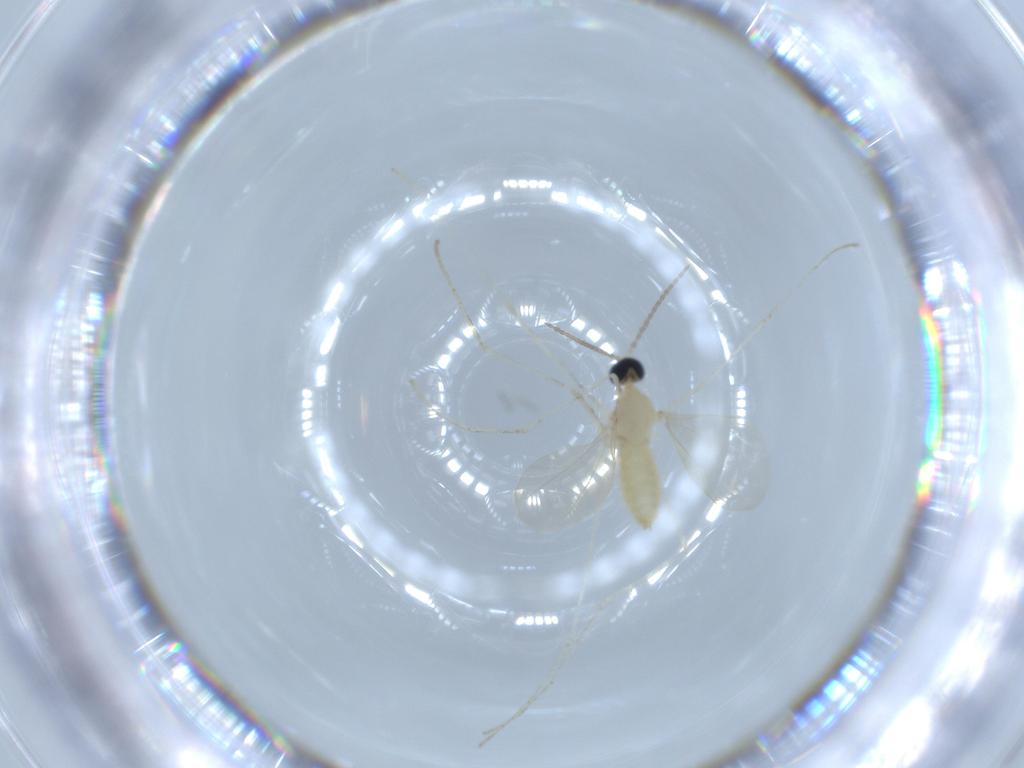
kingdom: Animalia
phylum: Arthropoda
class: Insecta
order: Diptera
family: Cecidomyiidae
